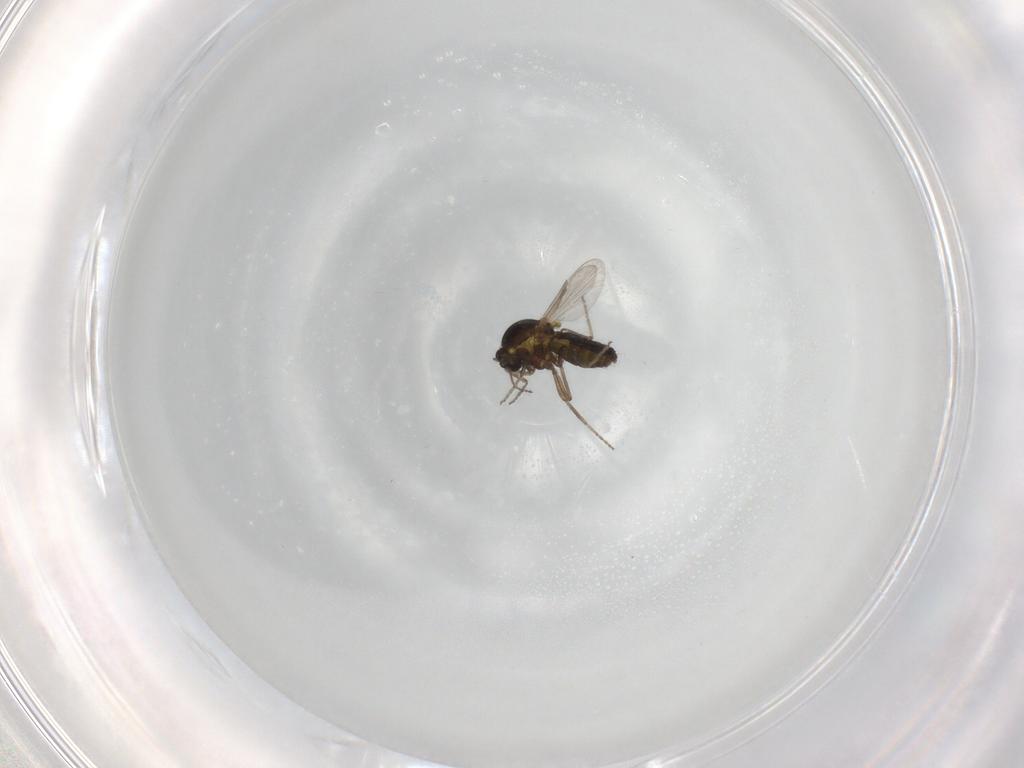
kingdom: Animalia
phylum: Arthropoda
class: Insecta
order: Diptera
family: Ceratopogonidae
